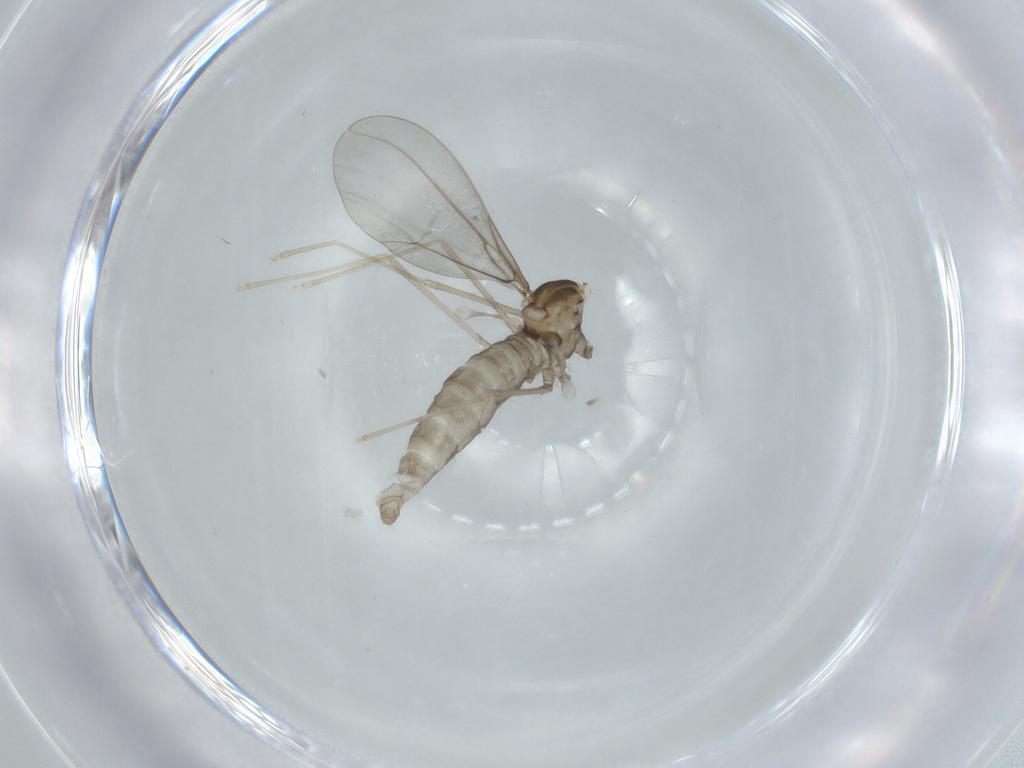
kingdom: Animalia
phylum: Arthropoda
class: Insecta
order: Diptera
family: Cecidomyiidae
